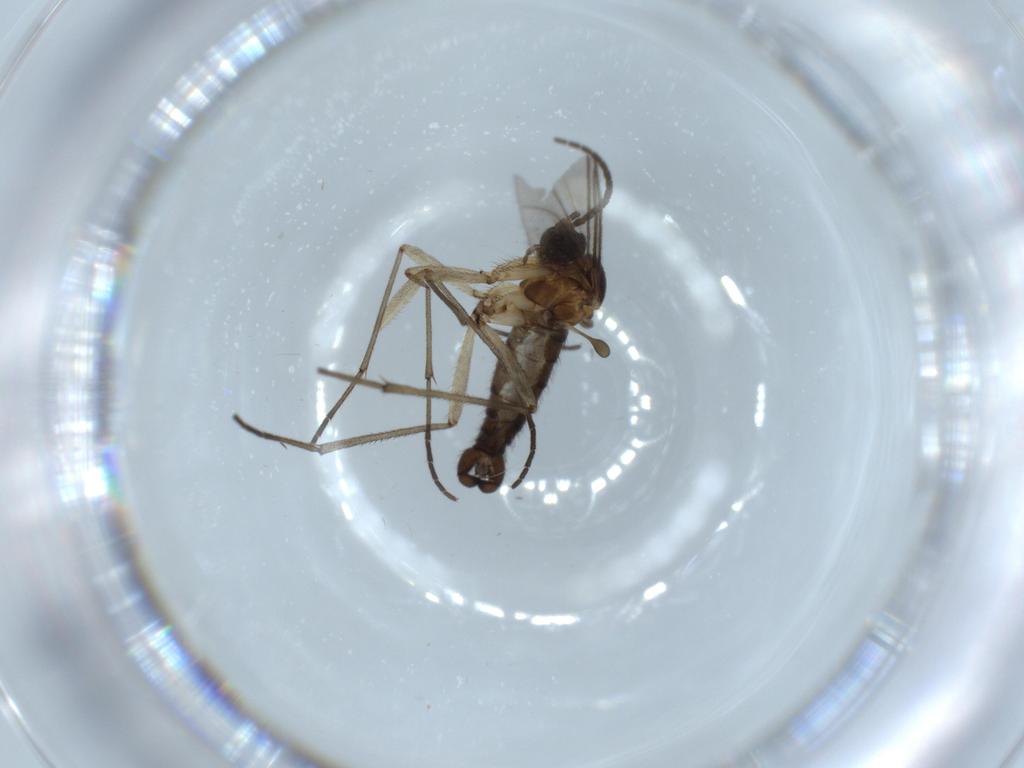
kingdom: Animalia
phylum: Arthropoda
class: Insecta
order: Diptera
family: Sciaridae
